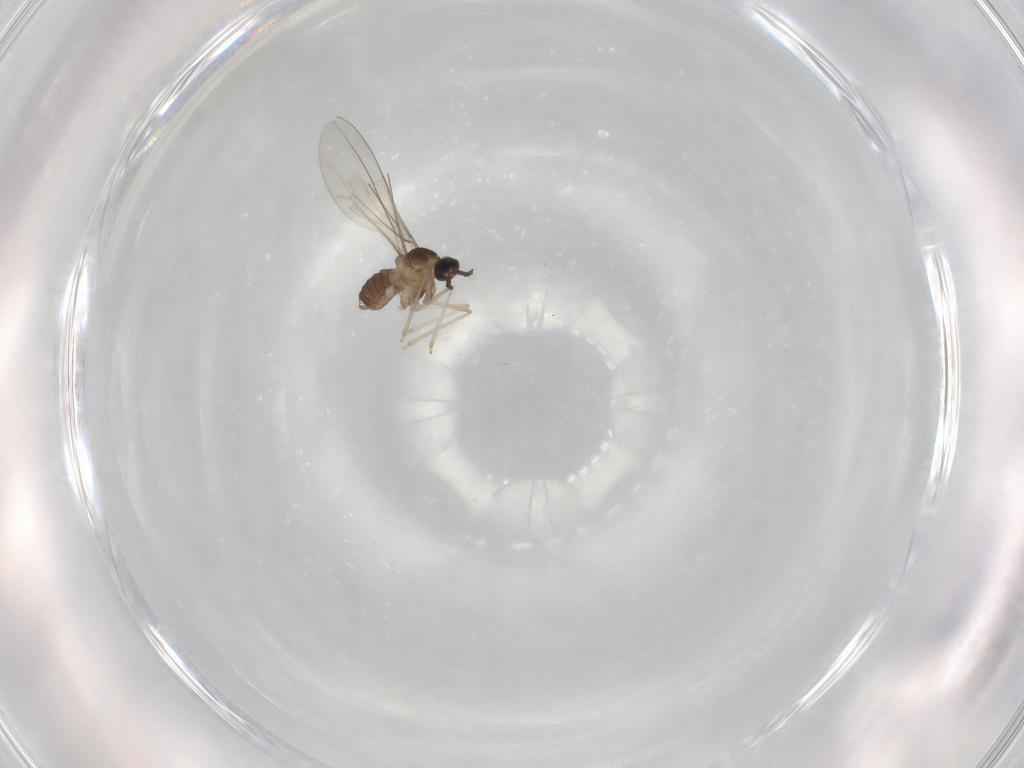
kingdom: Animalia
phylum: Arthropoda
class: Insecta
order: Diptera
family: Cecidomyiidae
